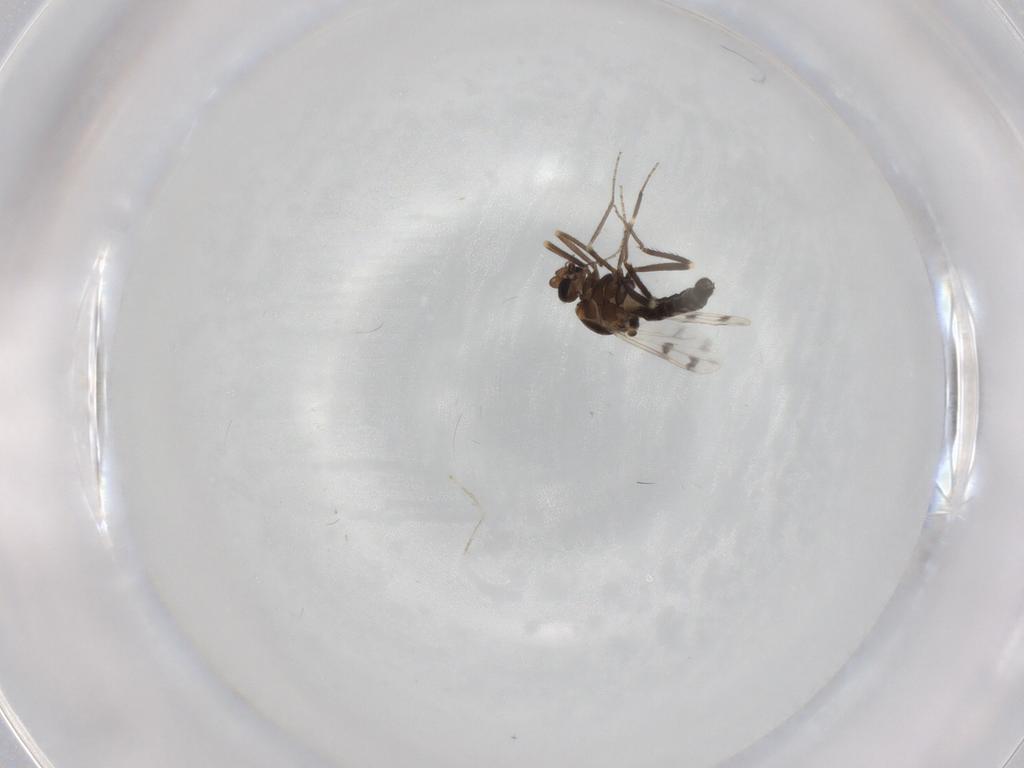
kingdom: Animalia
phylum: Arthropoda
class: Insecta
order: Diptera
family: Ceratopogonidae
